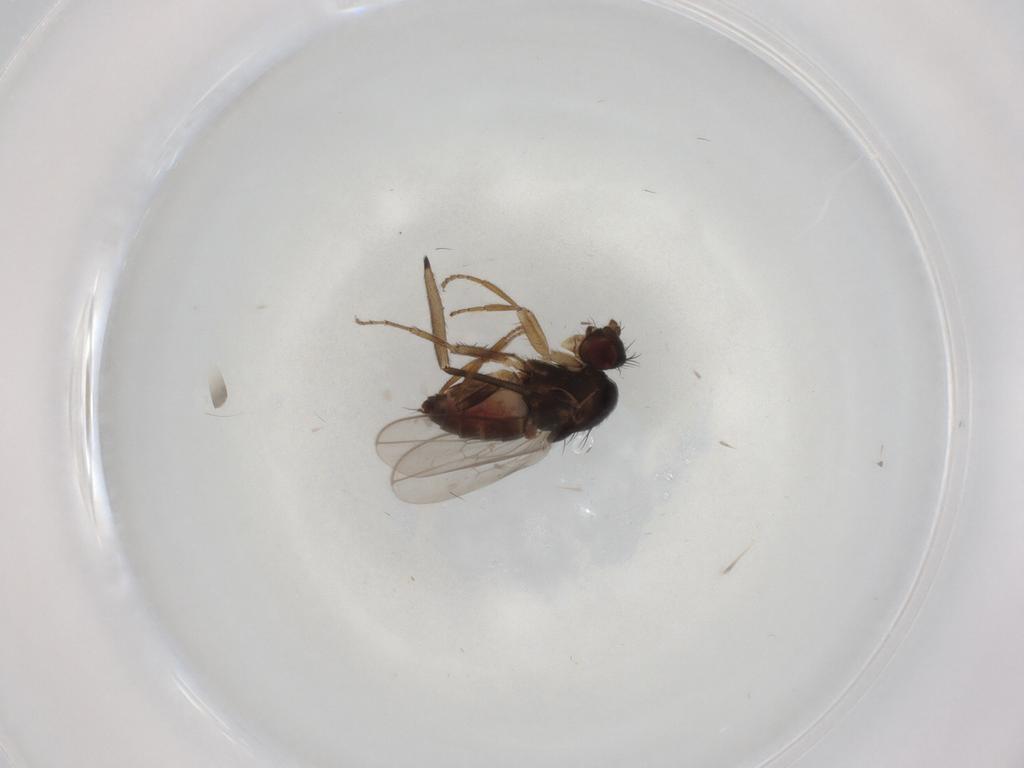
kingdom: Animalia
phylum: Arthropoda
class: Insecta
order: Diptera
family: Sphaeroceridae
